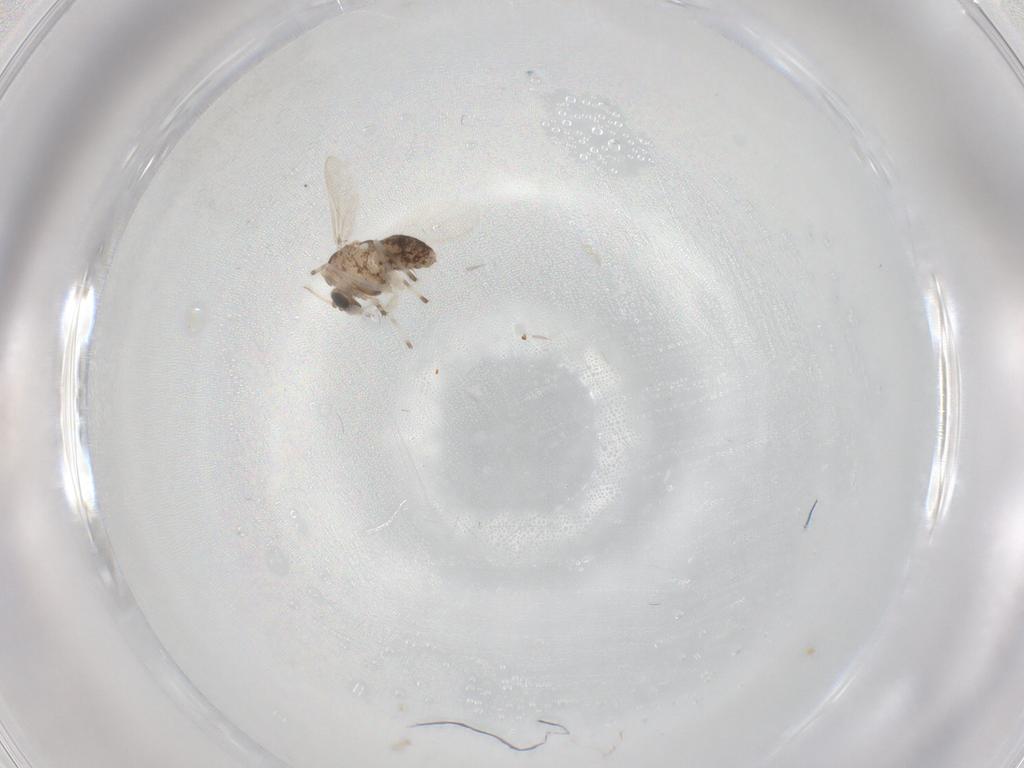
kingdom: Animalia
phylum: Arthropoda
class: Insecta
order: Diptera
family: Chironomidae
